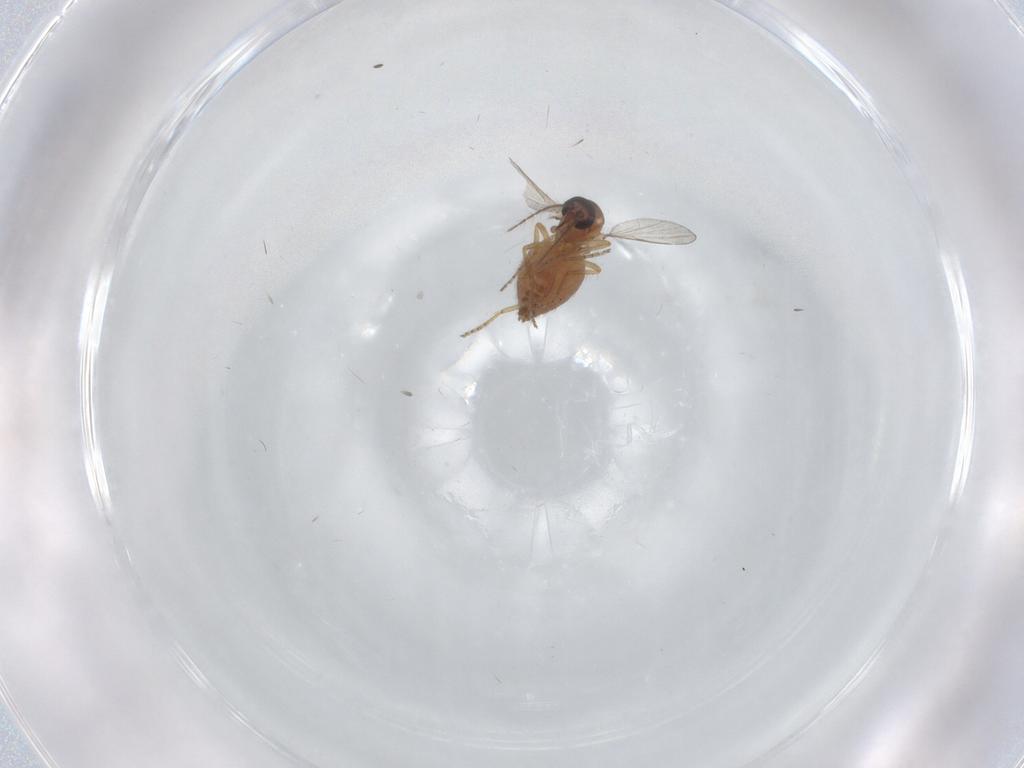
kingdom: Animalia
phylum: Arthropoda
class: Insecta
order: Diptera
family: Ceratopogonidae
